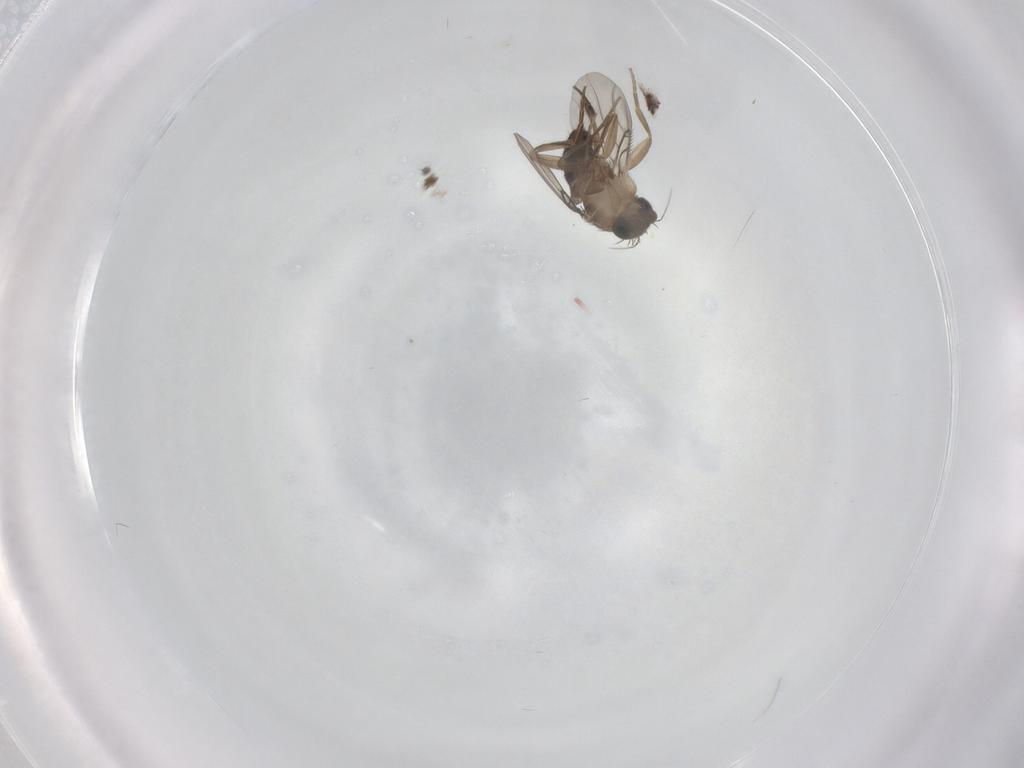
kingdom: Animalia
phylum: Arthropoda
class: Insecta
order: Diptera
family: Phoridae
